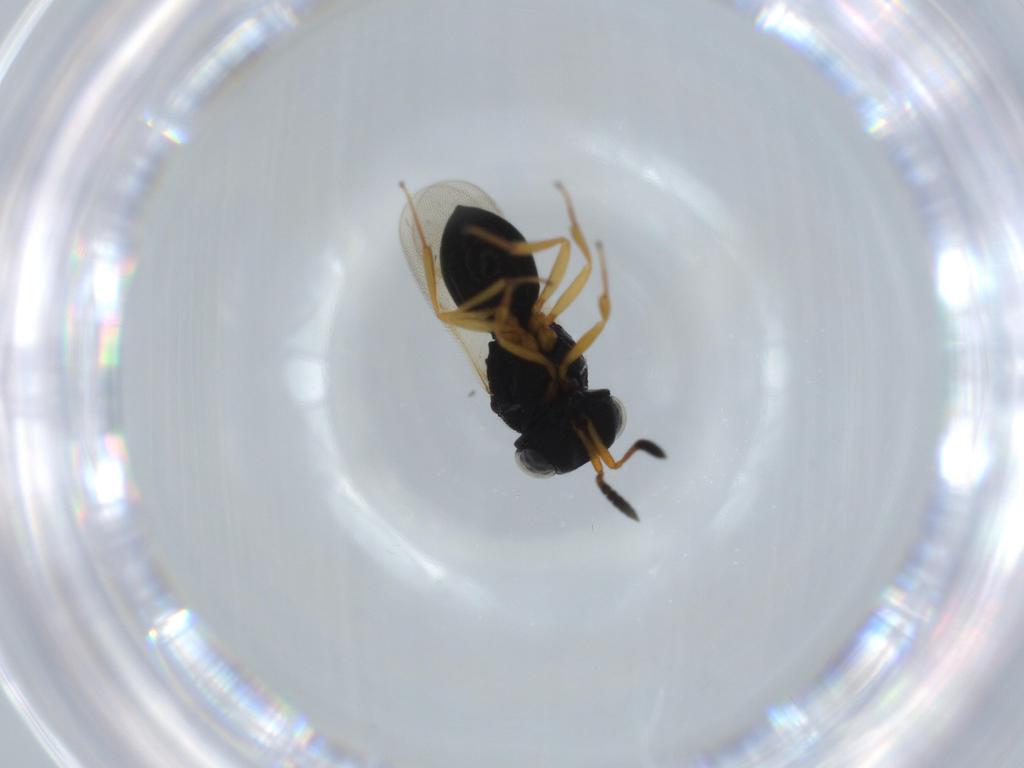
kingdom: Animalia
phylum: Arthropoda
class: Insecta
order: Hymenoptera
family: Scelionidae
